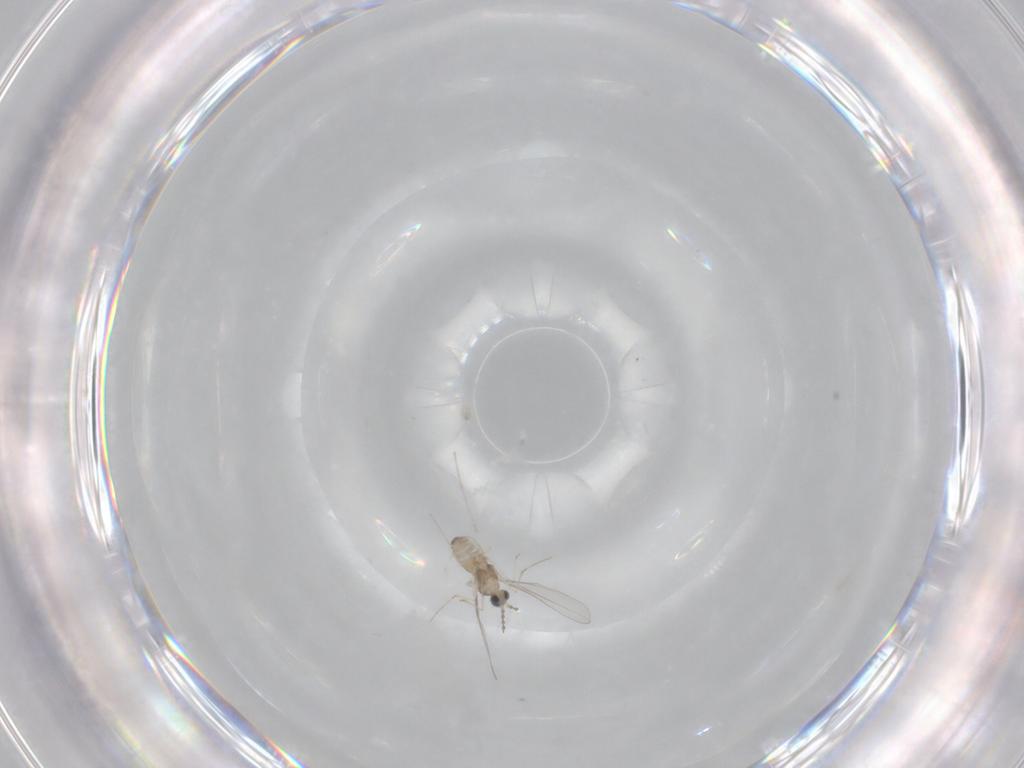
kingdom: Animalia
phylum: Arthropoda
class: Insecta
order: Diptera
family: Cecidomyiidae
